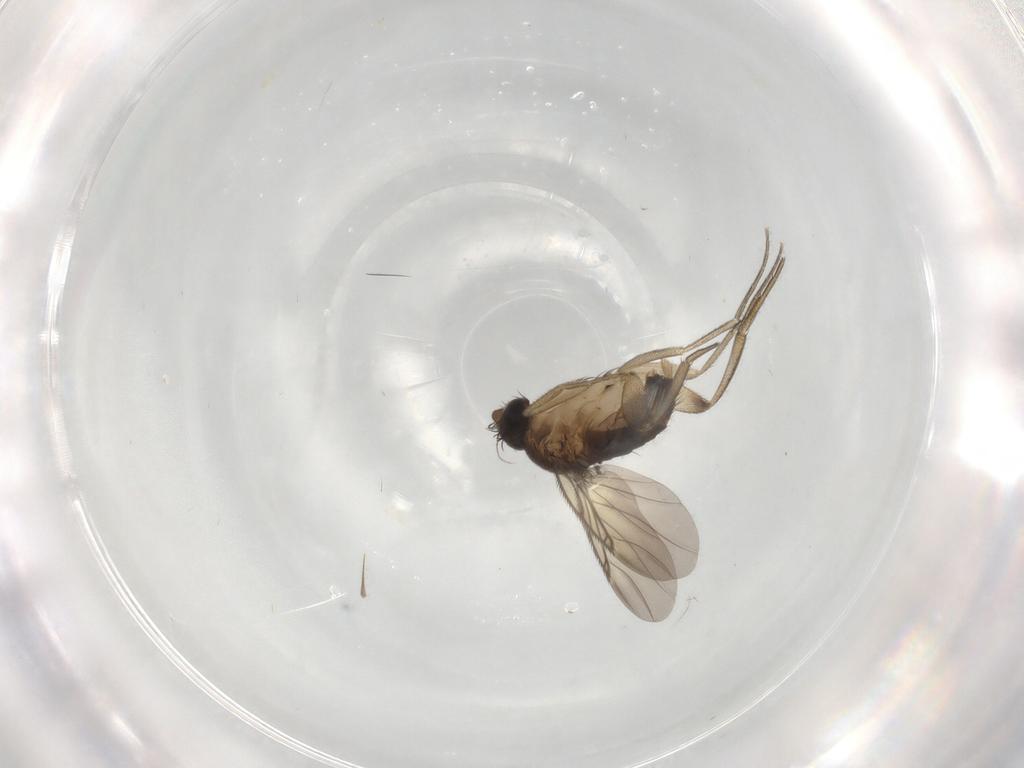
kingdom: Animalia
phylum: Arthropoda
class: Insecta
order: Diptera
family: Phoridae
